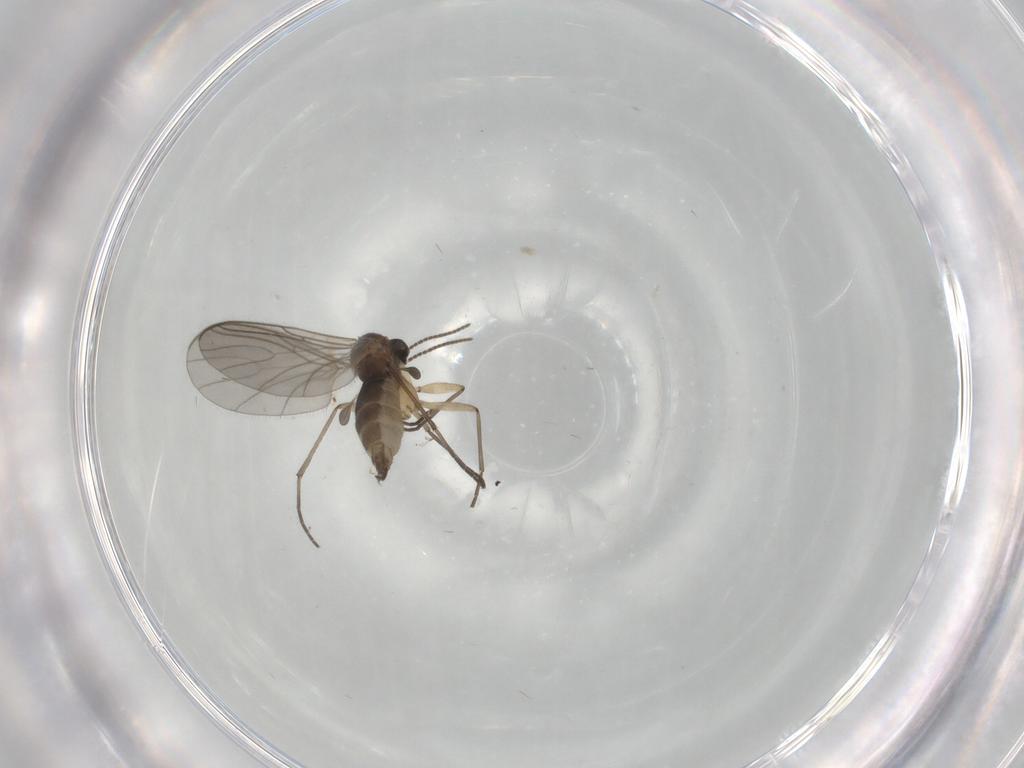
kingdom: Animalia
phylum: Arthropoda
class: Insecta
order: Diptera
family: Sciaridae
